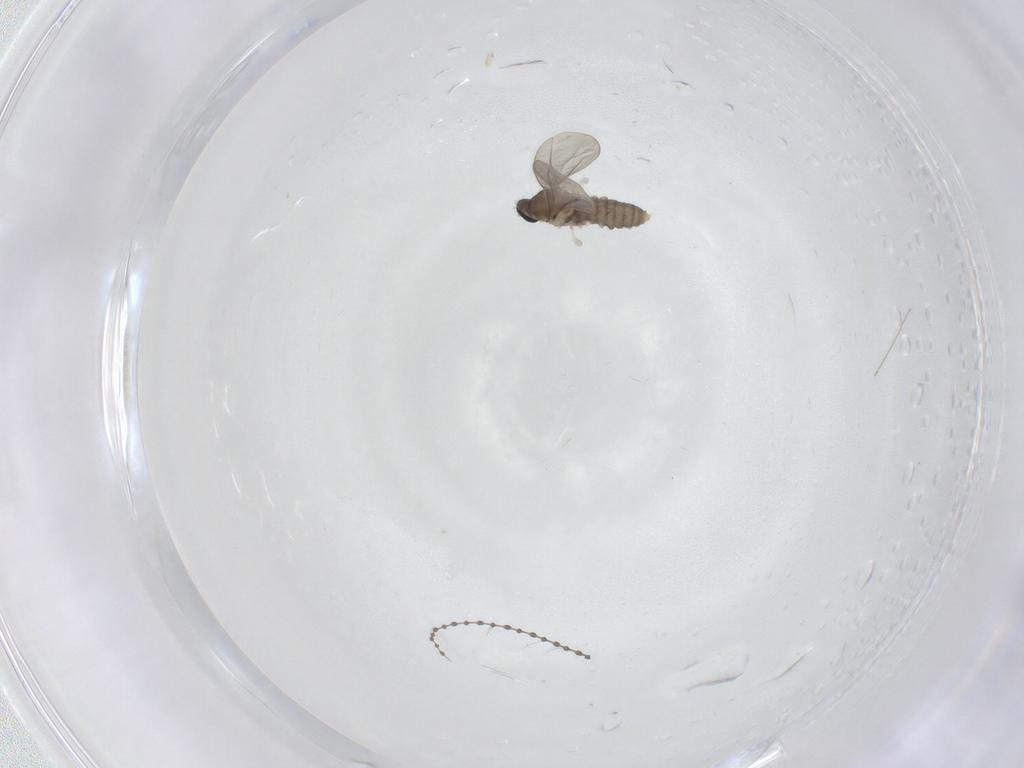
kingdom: Animalia
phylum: Arthropoda
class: Insecta
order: Diptera
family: Cecidomyiidae
